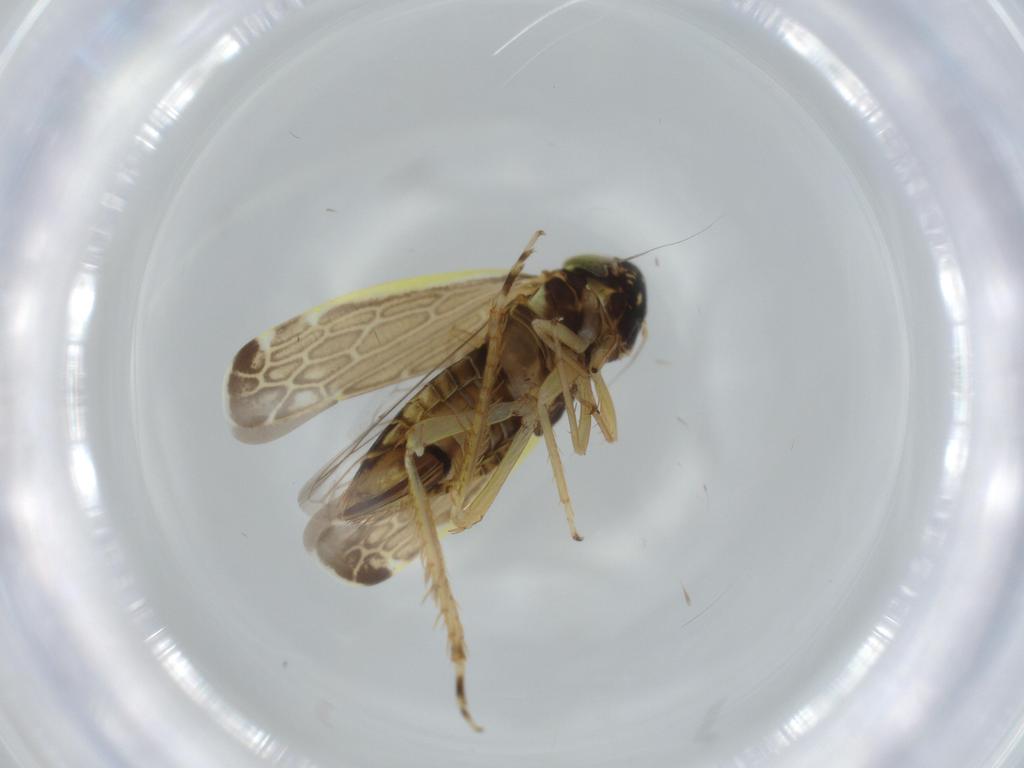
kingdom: Animalia
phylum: Arthropoda
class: Insecta
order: Hemiptera
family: Cicadellidae
